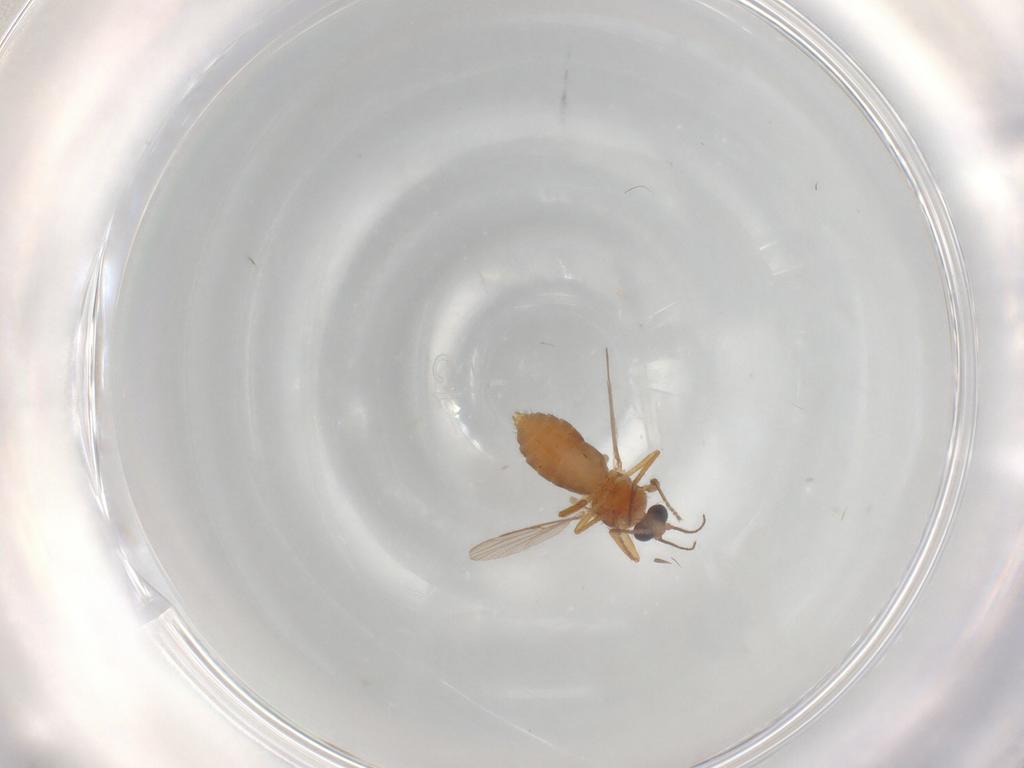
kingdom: Animalia
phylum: Arthropoda
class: Insecta
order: Diptera
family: Ceratopogonidae
